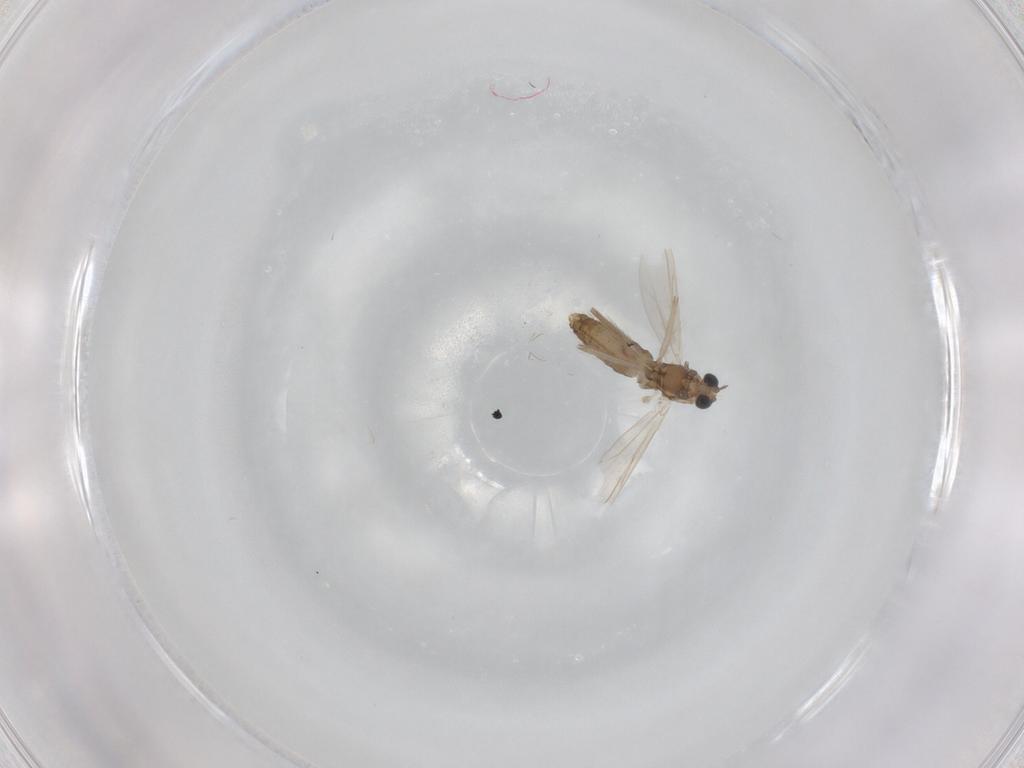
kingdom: Animalia
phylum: Arthropoda
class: Insecta
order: Diptera
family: Chironomidae
